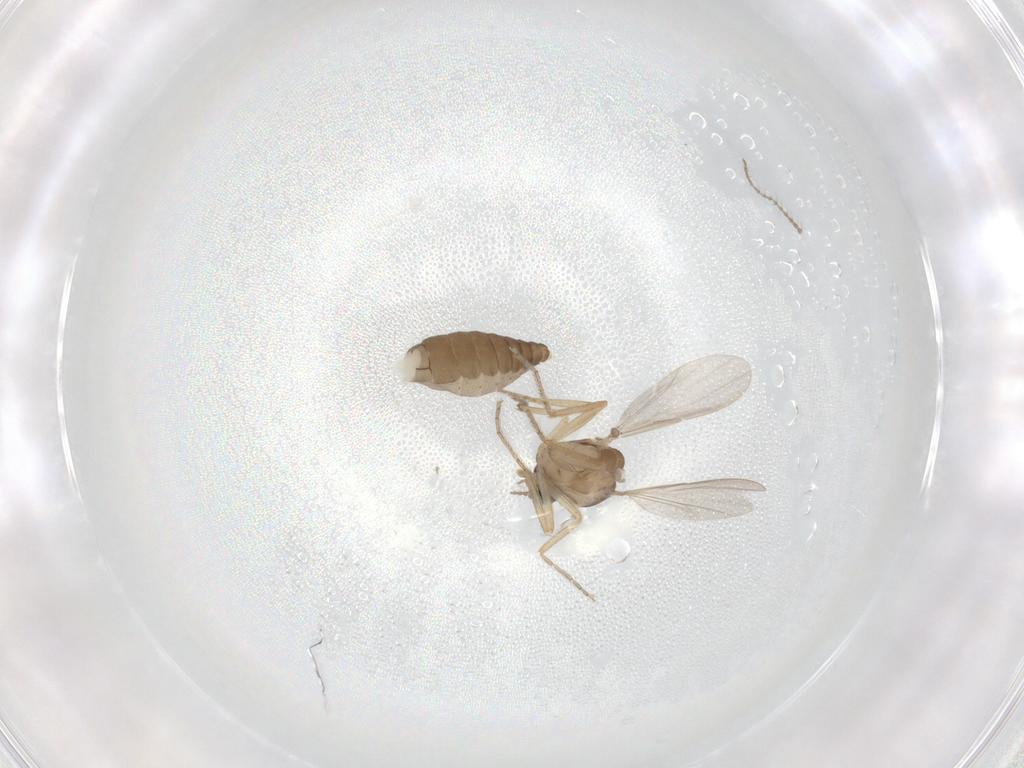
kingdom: Animalia
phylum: Arthropoda
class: Insecta
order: Diptera
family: Ceratopogonidae
